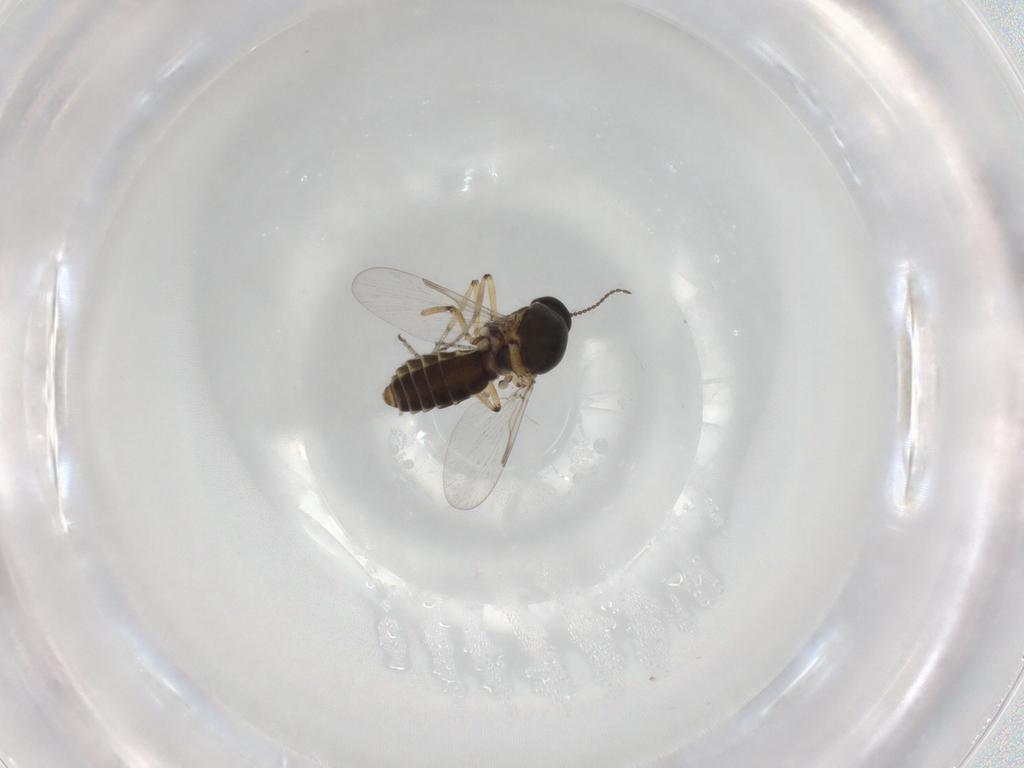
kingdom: Animalia
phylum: Arthropoda
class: Insecta
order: Diptera
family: Ceratopogonidae
